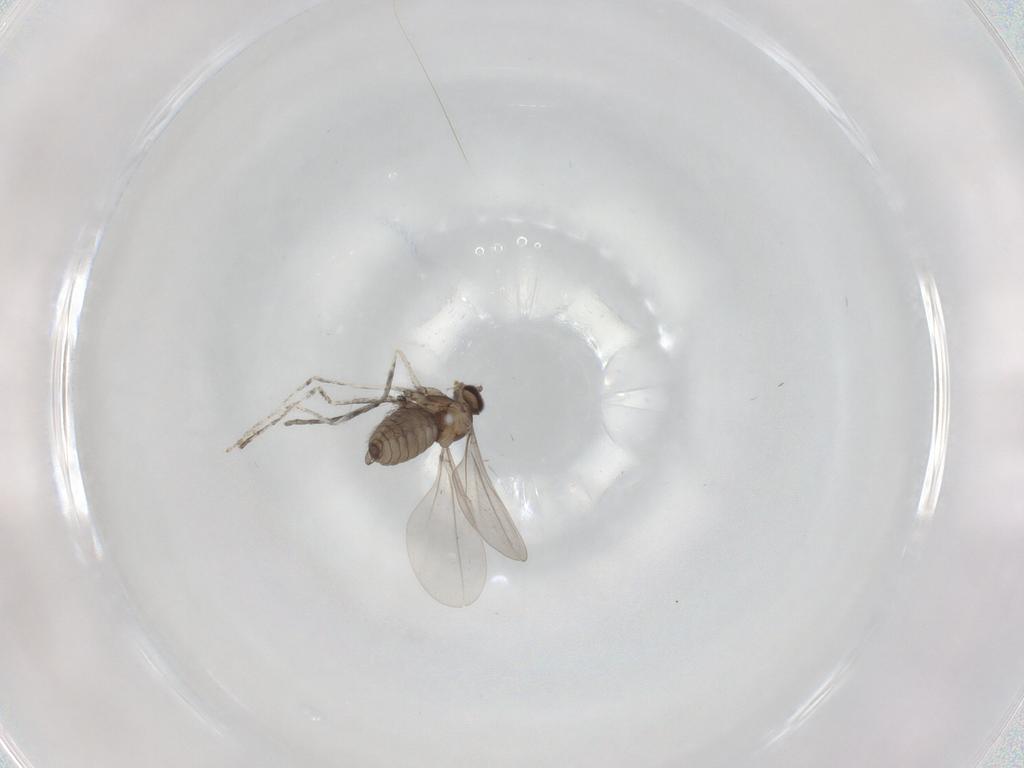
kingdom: Animalia
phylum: Arthropoda
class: Insecta
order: Diptera
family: Cecidomyiidae
